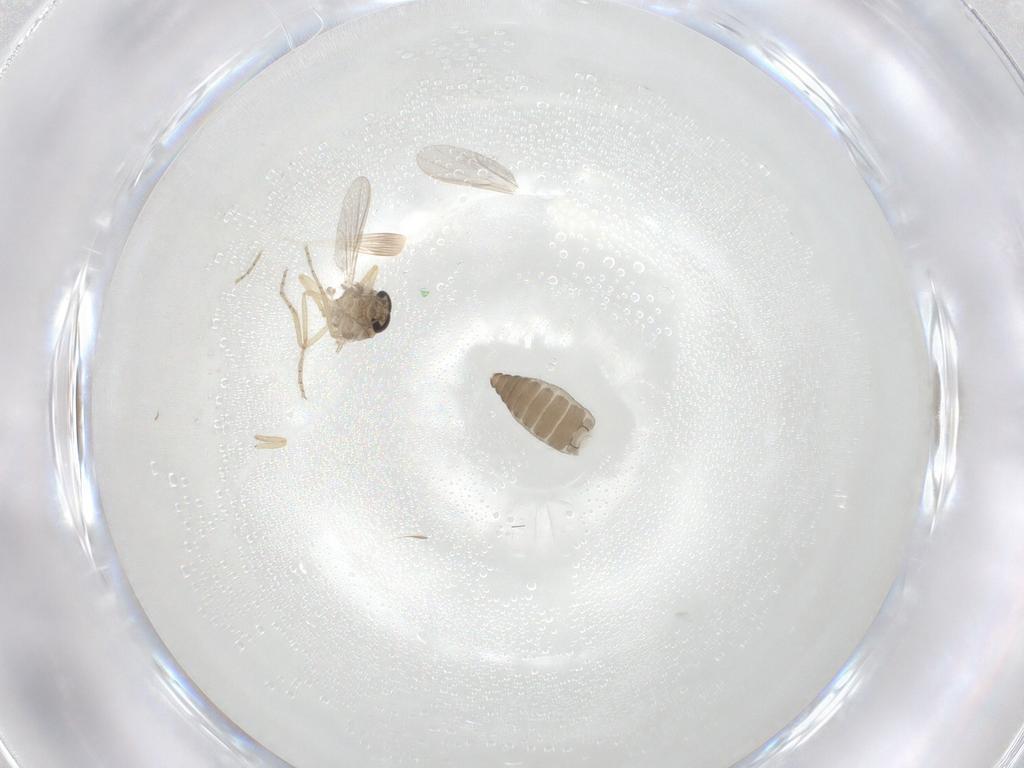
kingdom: Animalia
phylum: Arthropoda
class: Insecta
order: Diptera
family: Ceratopogonidae
